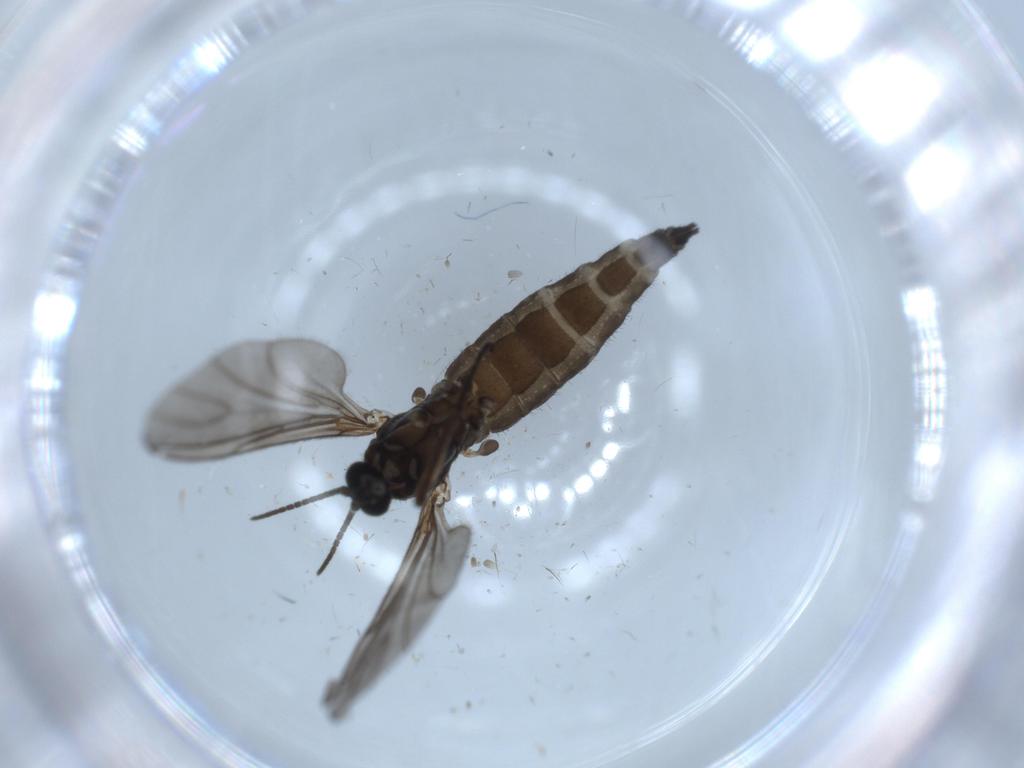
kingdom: Animalia
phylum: Arthropoda
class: Insecta
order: Diptera
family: Sciaridae
